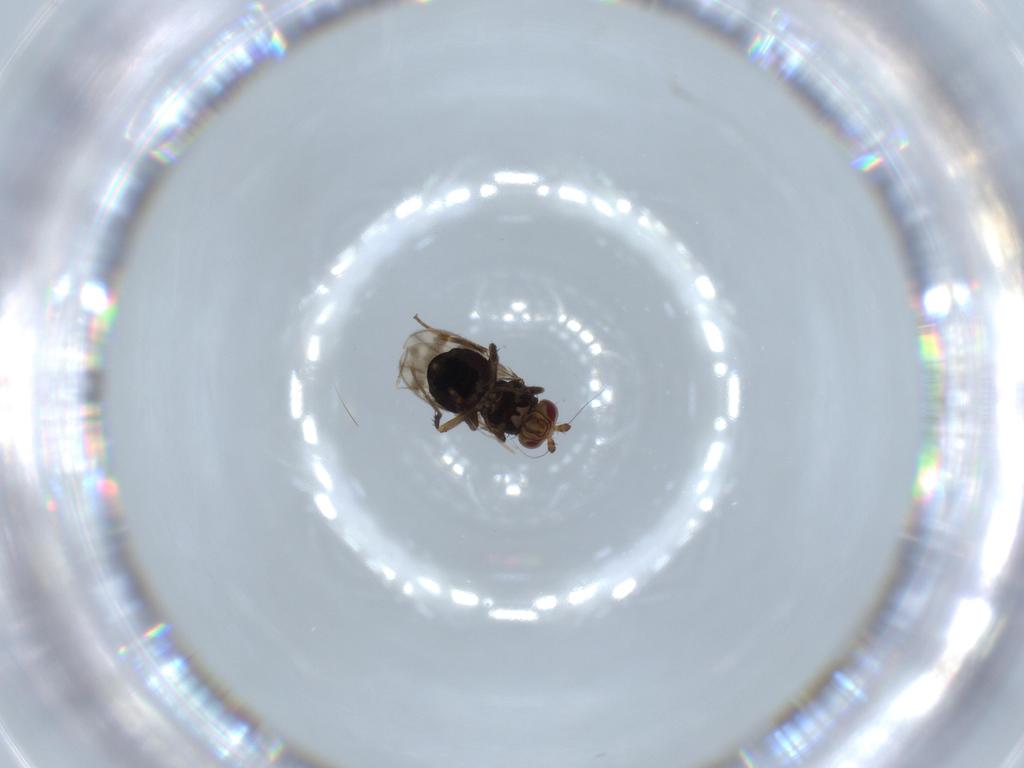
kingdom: Animalia
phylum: Arthropoda
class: Insecta
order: Diptera
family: Sphaeroceridae
